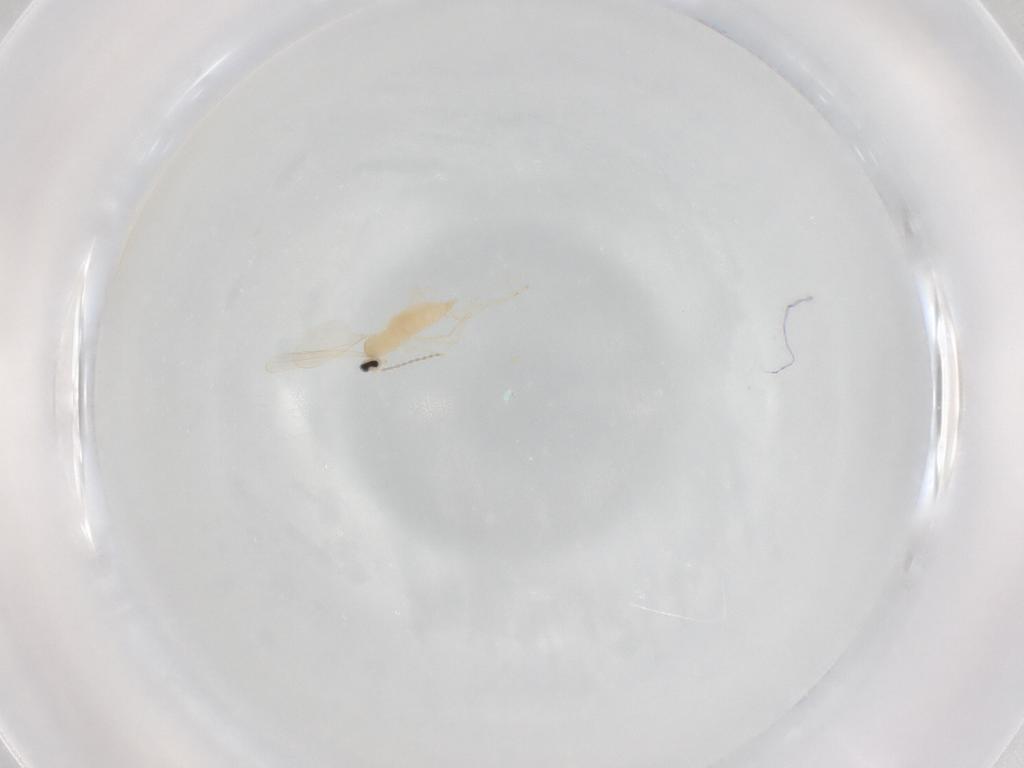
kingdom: Animalia
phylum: Arthropoda
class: Insecta
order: Diptera
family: Cecidomyiidae
